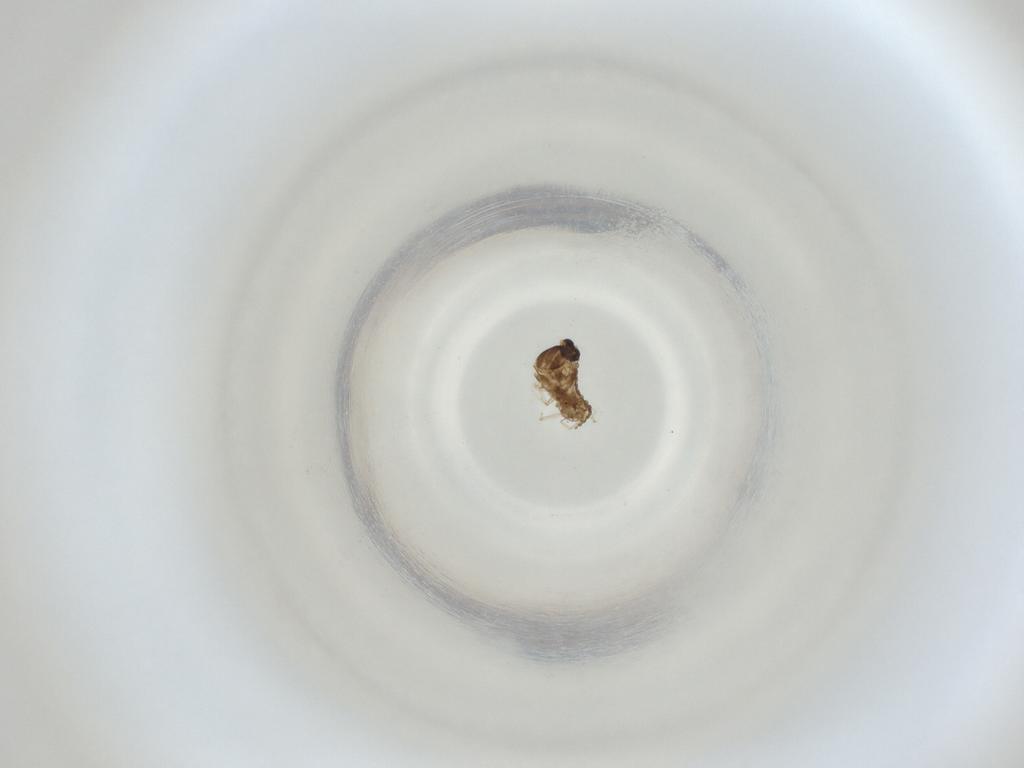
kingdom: Animalia
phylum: Arthropoda
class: Insecta
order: Diptera
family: Cecidomyiidae
